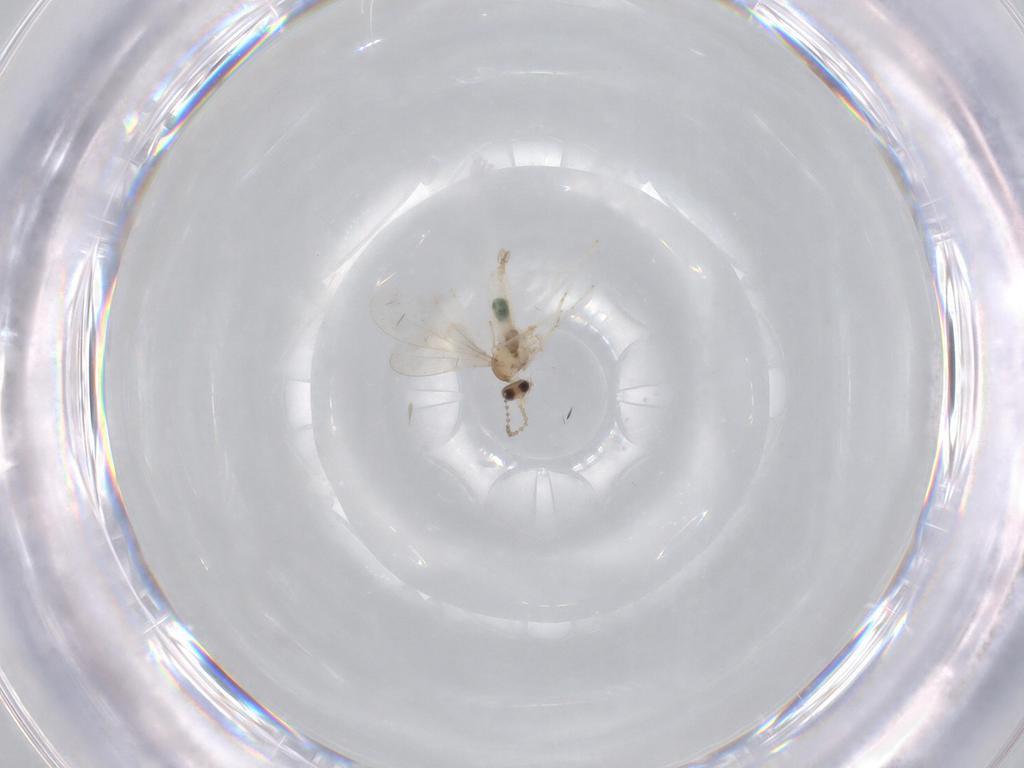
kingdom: Animalia
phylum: Arthropoda
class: Insecta
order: Diptera
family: Cecidomyiidae
